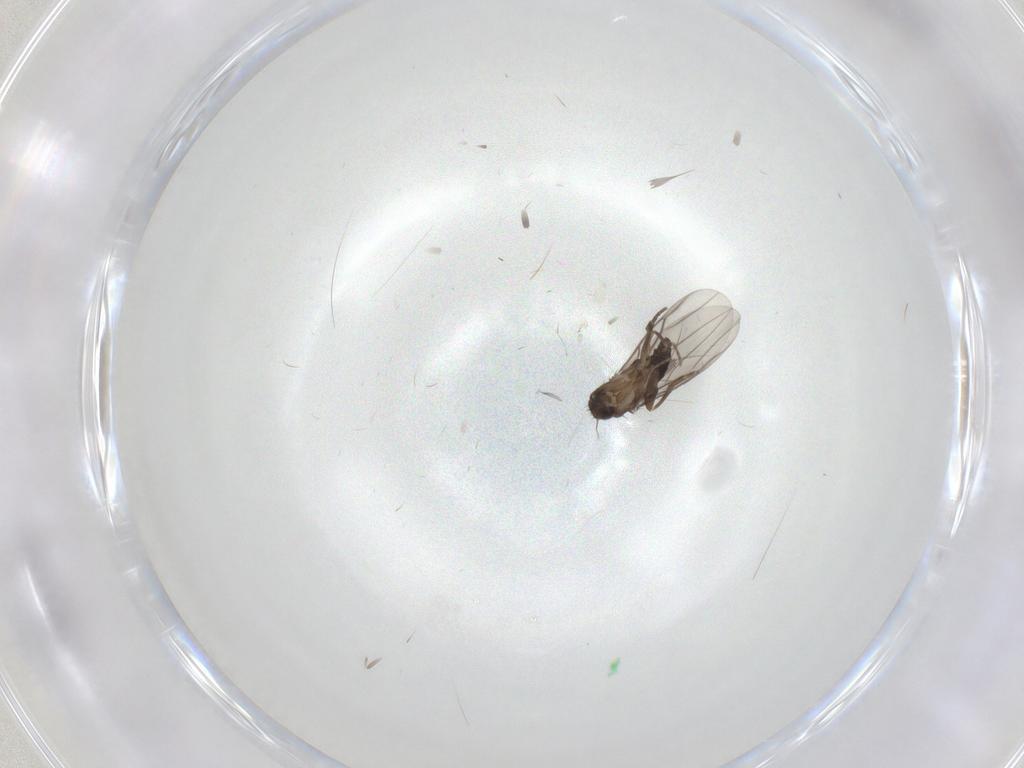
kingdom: Animalia
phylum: Arthropoda
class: Insecta
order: Diptera
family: Phoridae
